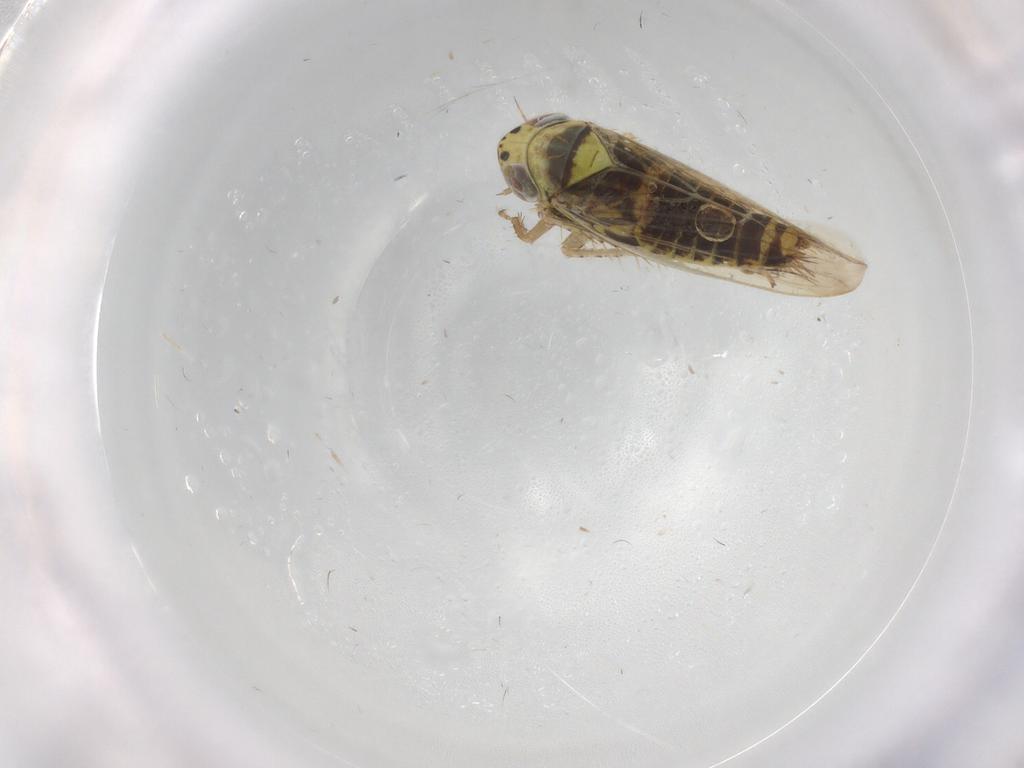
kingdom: Animalia
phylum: Arthropoda
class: Insecta
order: Hemiptera
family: Cicadellidae
